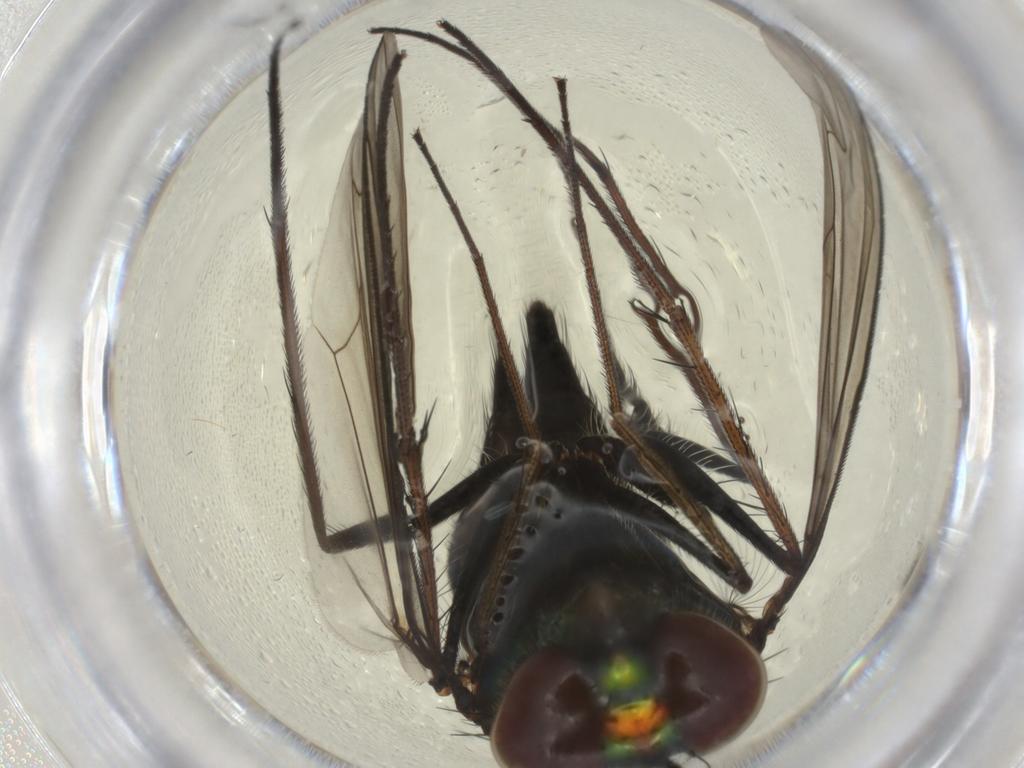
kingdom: Animalia
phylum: Arthropoda
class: Insecta
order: Diptera
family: Dolichopodidae
